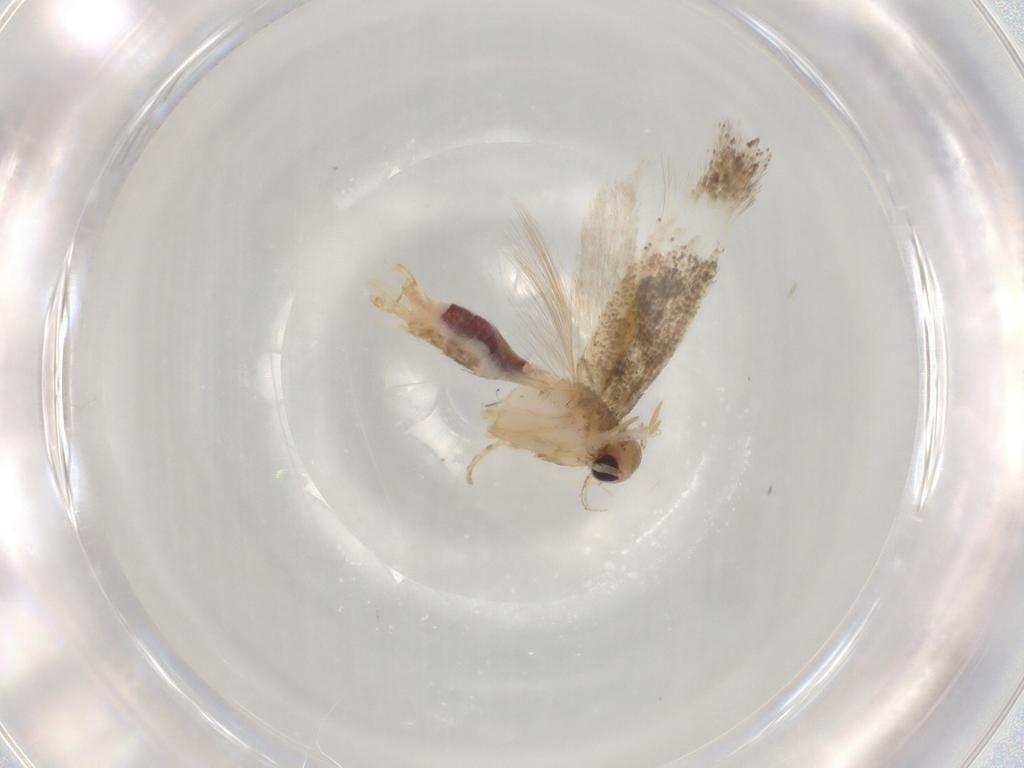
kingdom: Animalia
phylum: Arthropoda
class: Insecta
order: Lepidoptera
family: Gelechiidae
